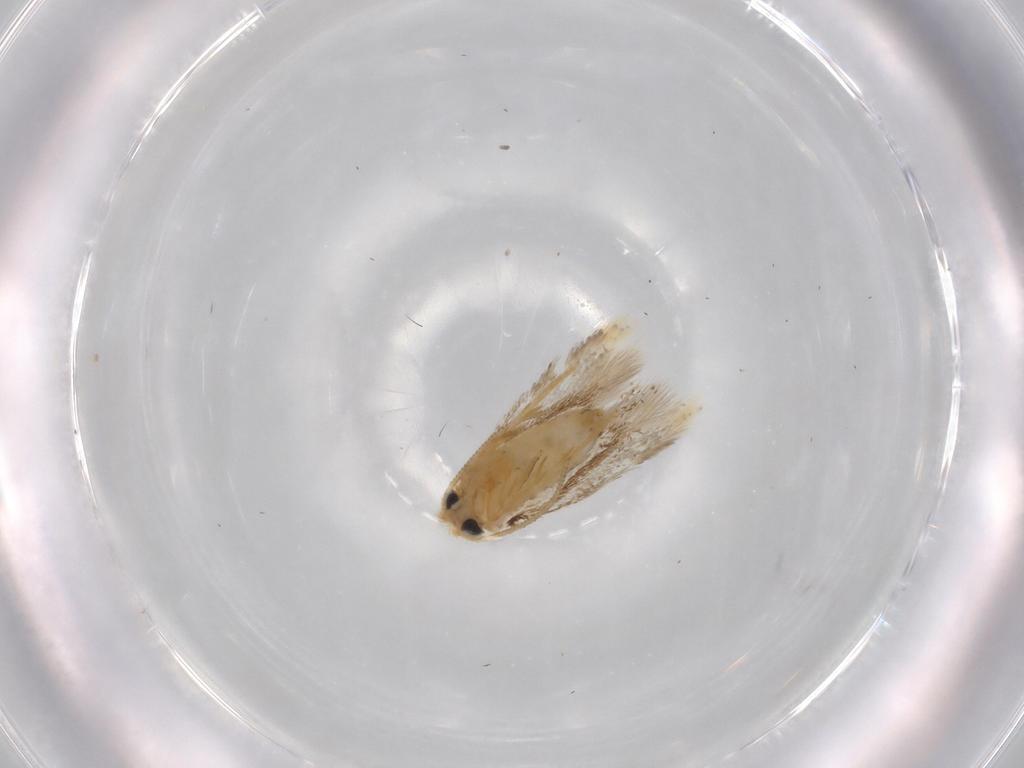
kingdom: Animalia
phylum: Arthropoda
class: Insecta
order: Lepidoptera
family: Nepticulidae
